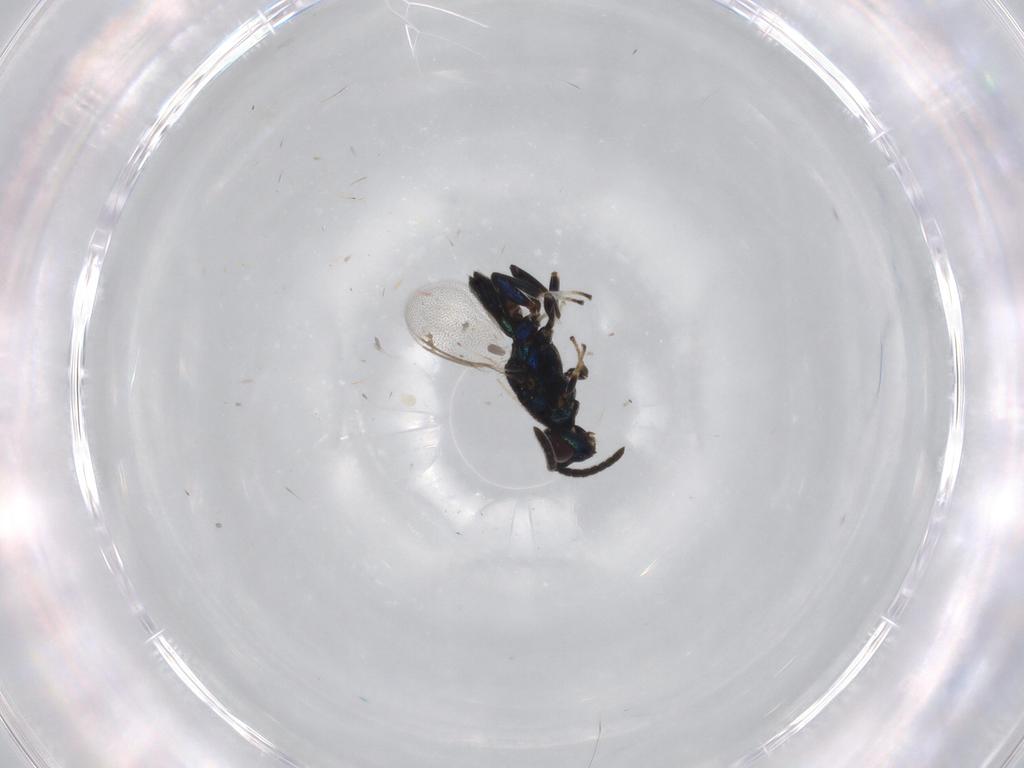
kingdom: Animalia
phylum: Arthropoda
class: Insecta
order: Hymenoptera
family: Eupelmidae
